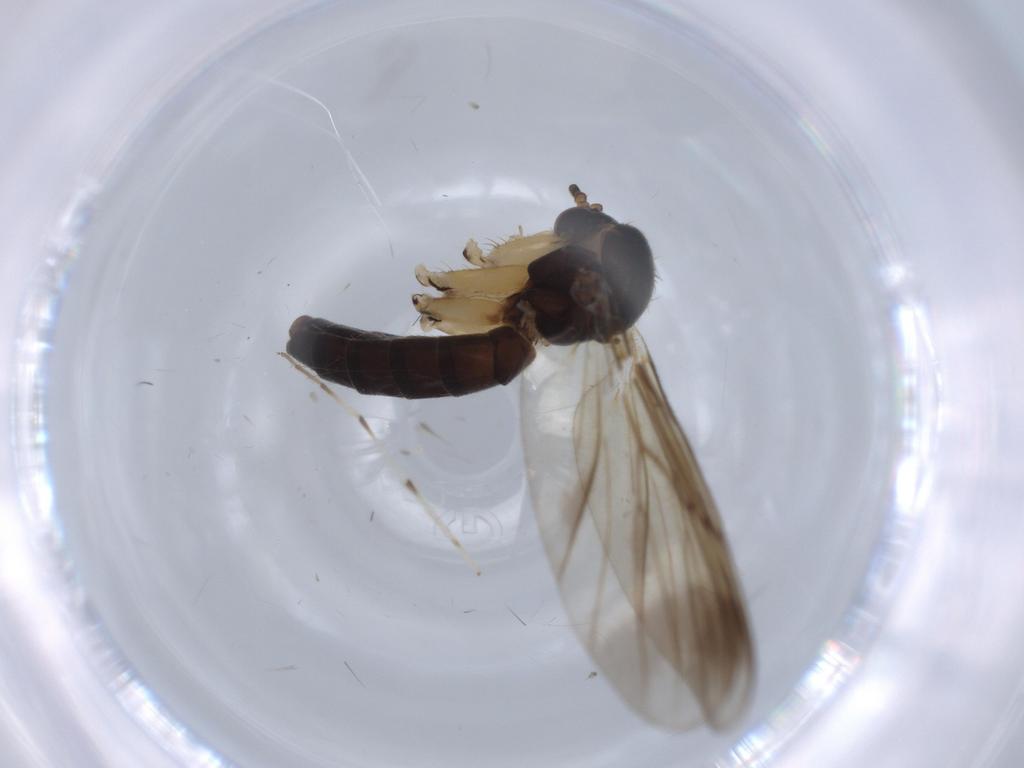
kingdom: Animalia
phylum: Arthropoda
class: Insecta
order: Diptera
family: Mycetophilidae
